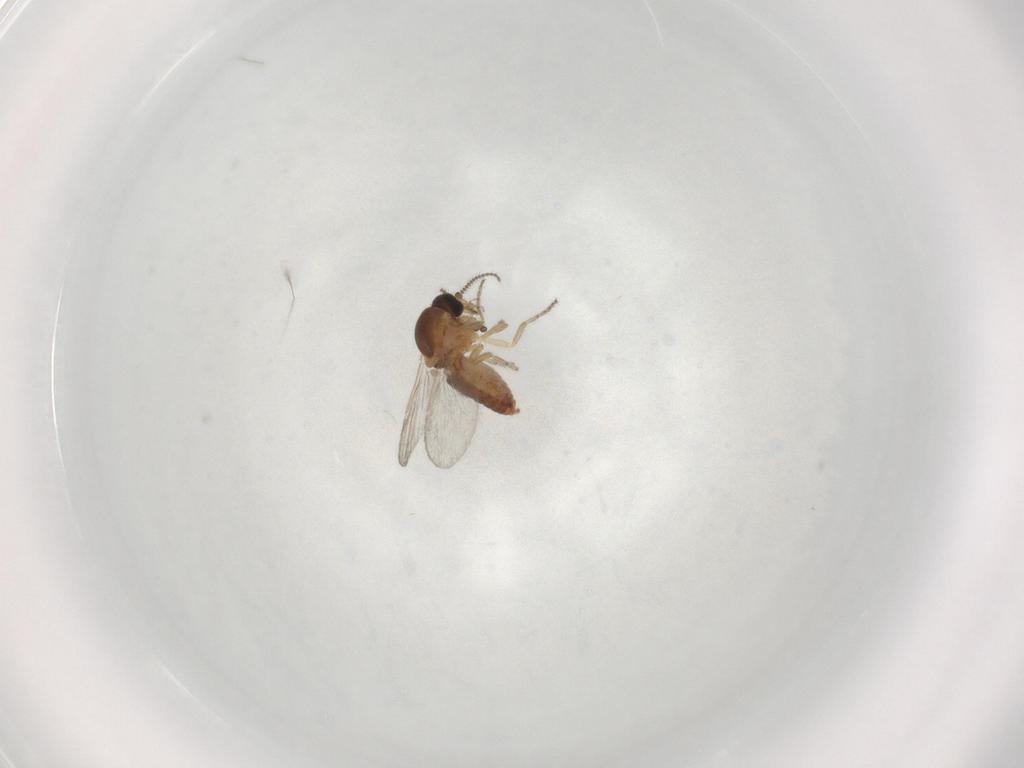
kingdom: Animalia
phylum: Arthropoda
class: Insecta
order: Diptera
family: Ceratopogonidae
